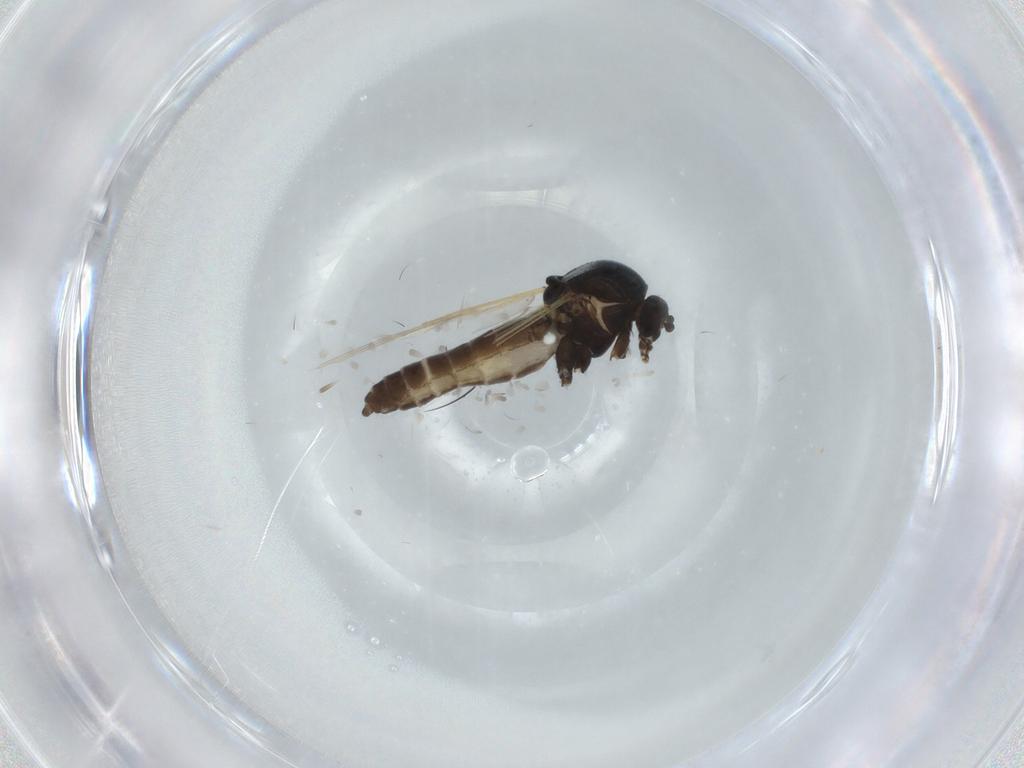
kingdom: Animalia
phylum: Arthropoda
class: Insecta
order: Diptera
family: Ceratopogonidae
